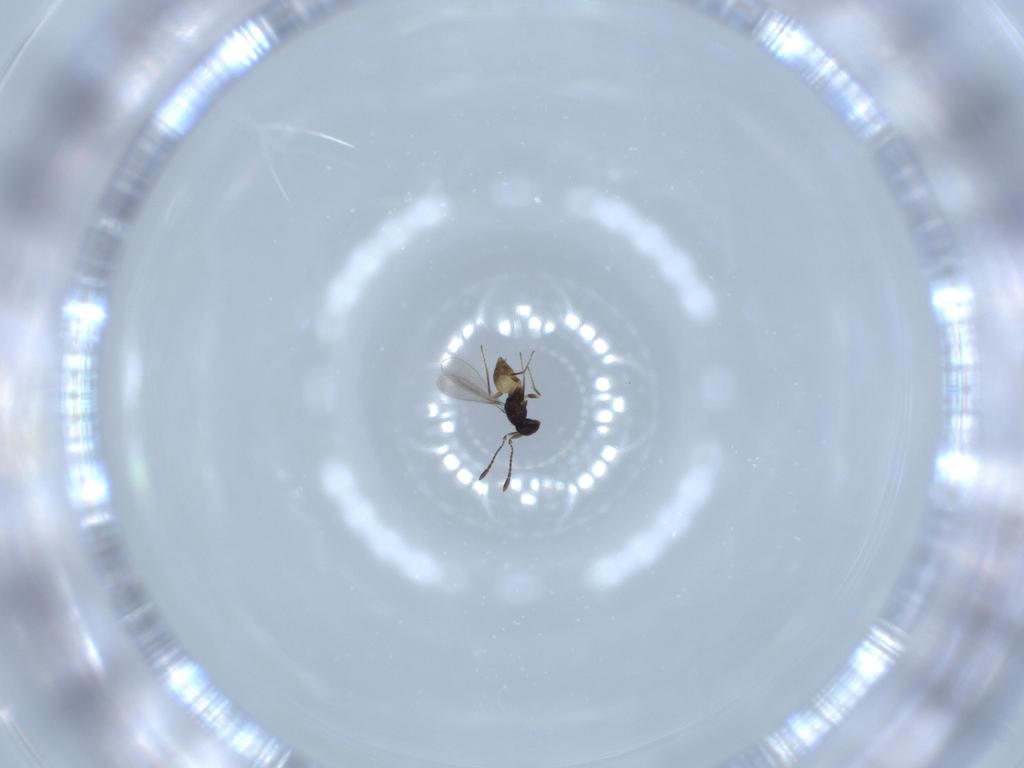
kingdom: Animalia
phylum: Arthropoda
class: Insecta
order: Hymenoptera
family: Mymaridae
